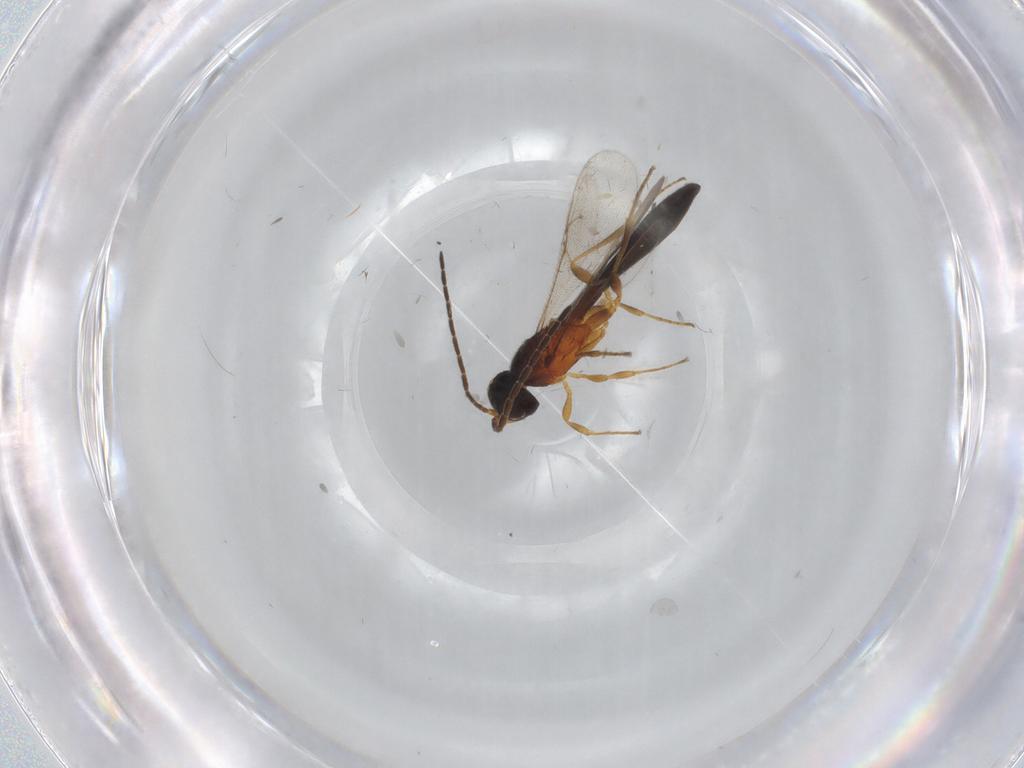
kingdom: Animalia
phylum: Arthropoda
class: Insecta
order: Hymenoptera
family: Scelionidae
